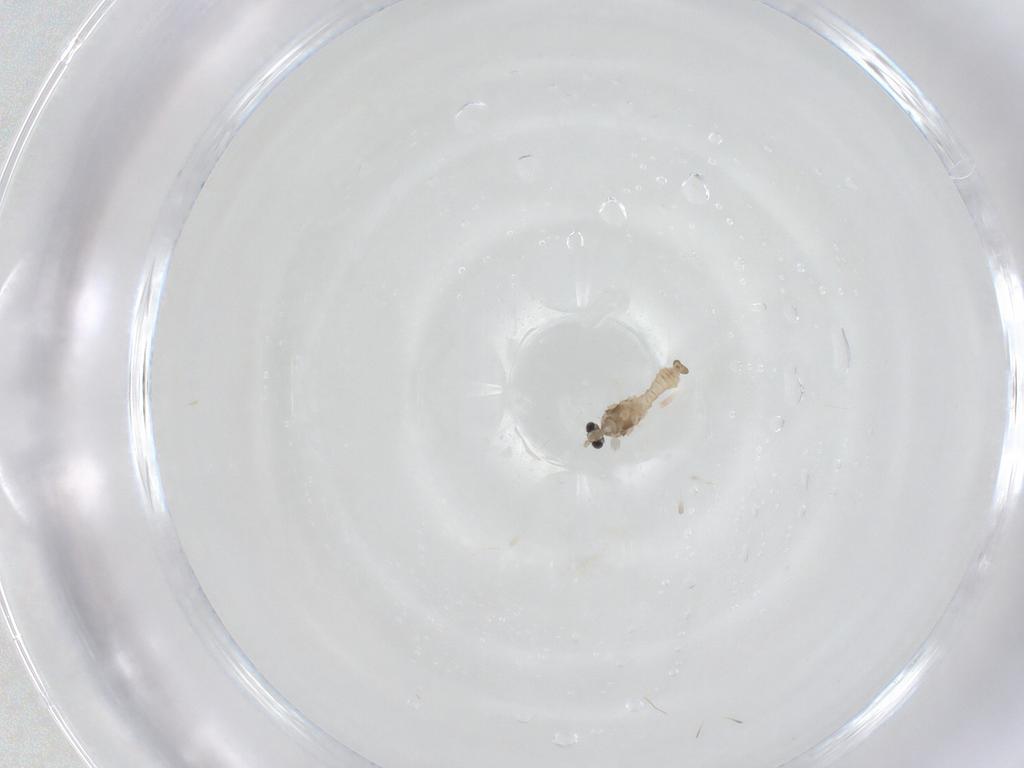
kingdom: Animalia
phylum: Arthropoda
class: Insecta
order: Diptera
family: Cecidomyiidae
